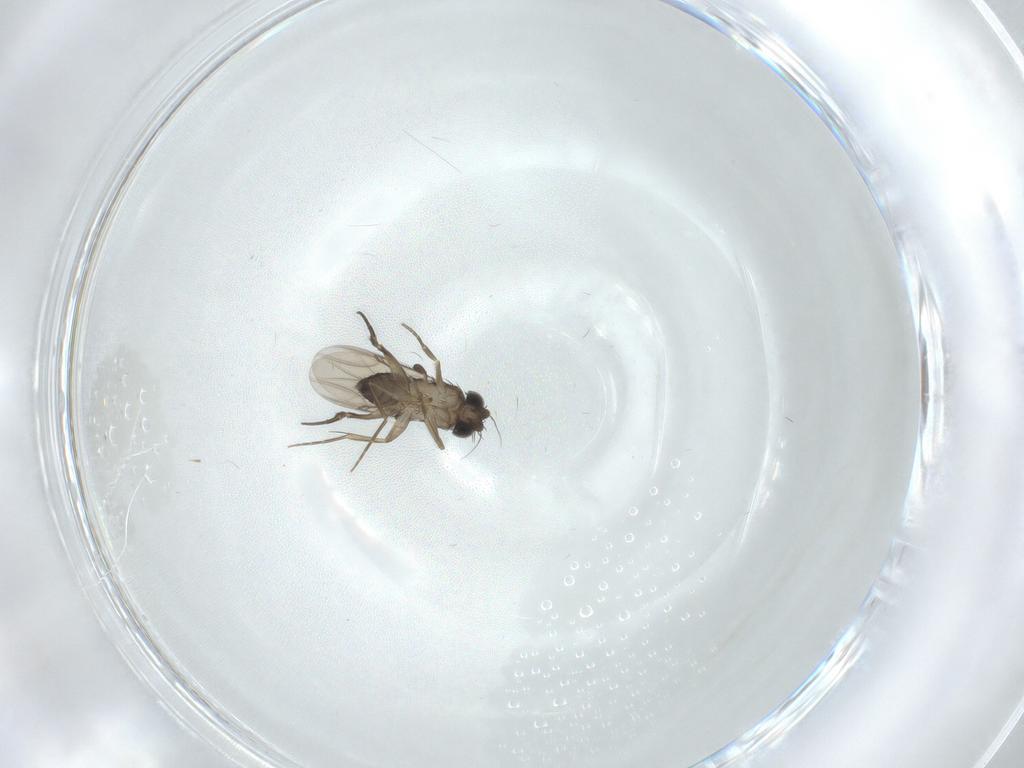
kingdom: Animalia
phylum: Arthropoda
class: Insecta
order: Diptera
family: Phoridae
